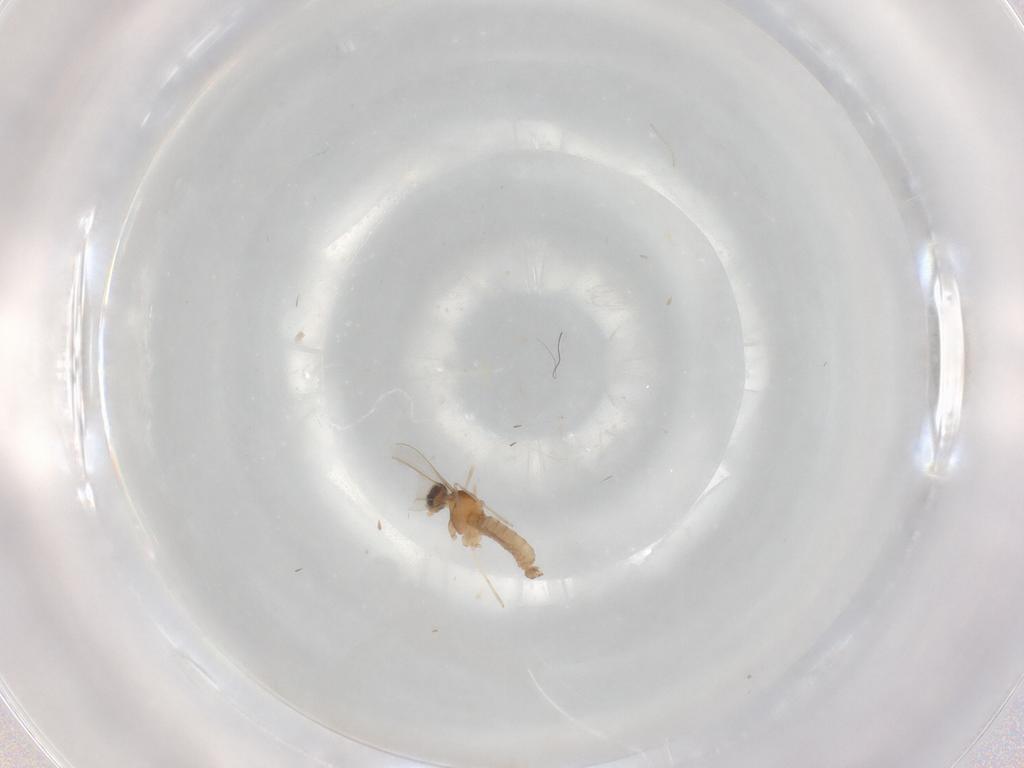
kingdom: Animalia
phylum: Arthropoda
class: Insecta
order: Diptera
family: Cecidomyiidae
